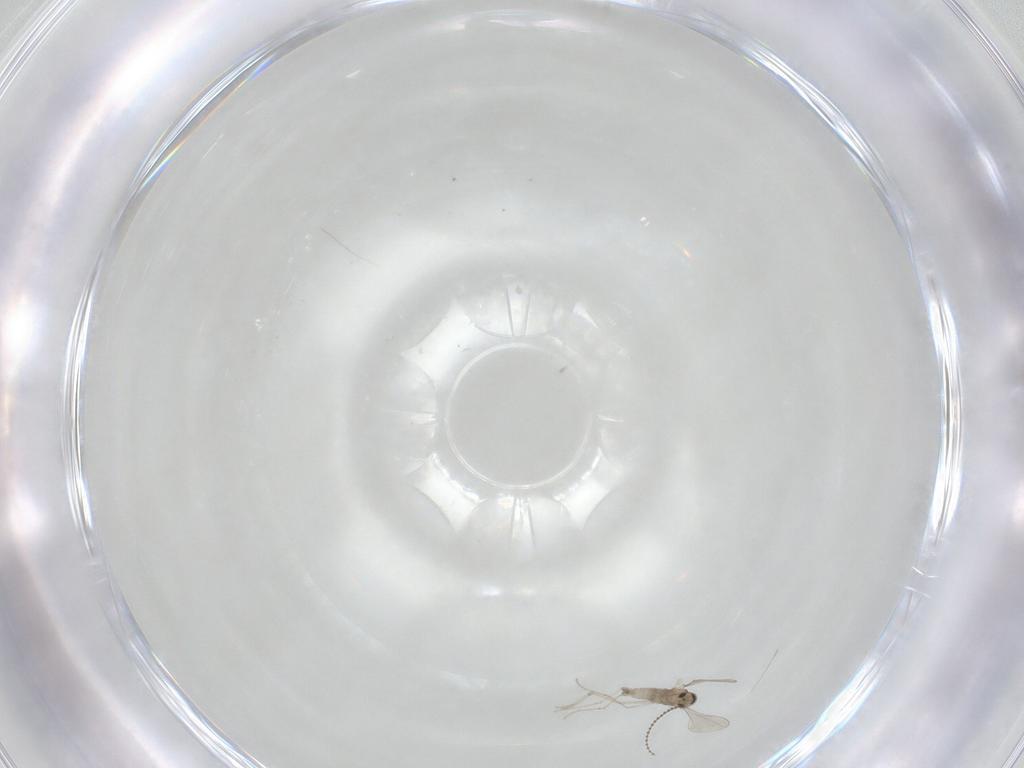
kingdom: Animalia
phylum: Arthropoda
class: Insecta
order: Diptera
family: Cecidomyiidae
